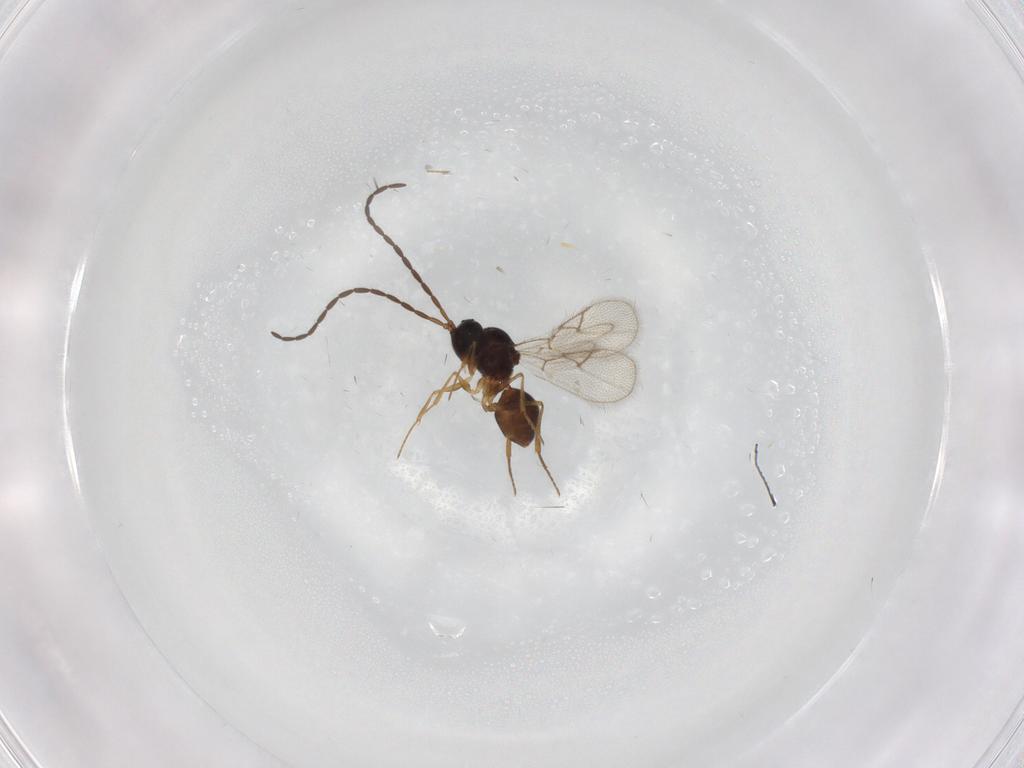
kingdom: Animalia
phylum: Arthropoda
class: Insecta
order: Hymenoptera
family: Figitidae
